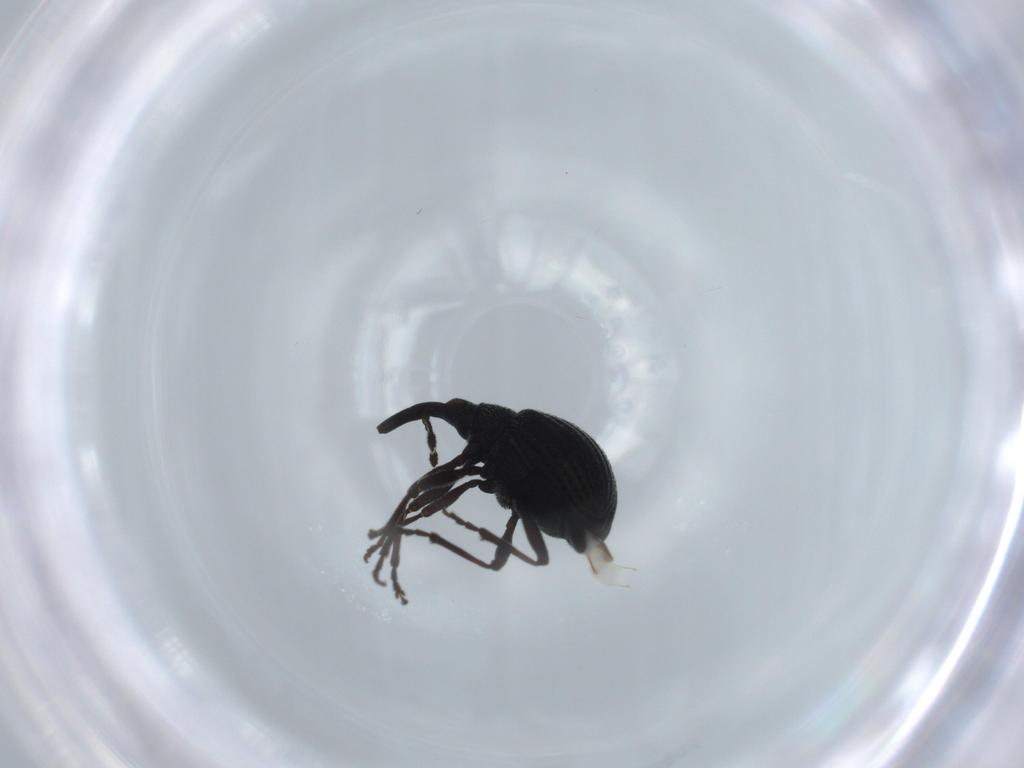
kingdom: Animalia
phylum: Arthropoda
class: Insecta
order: Coleoptera
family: Brentidae
